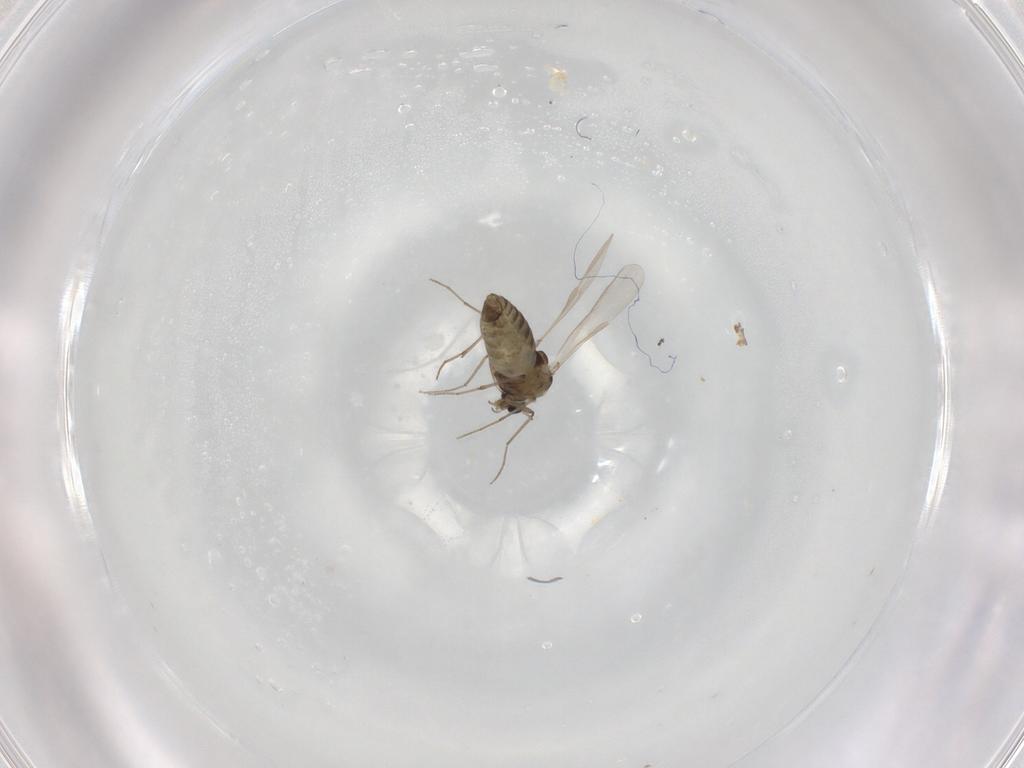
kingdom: Animalia
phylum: Arthropoda
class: Insecta
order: Diptera
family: Chironomidae
